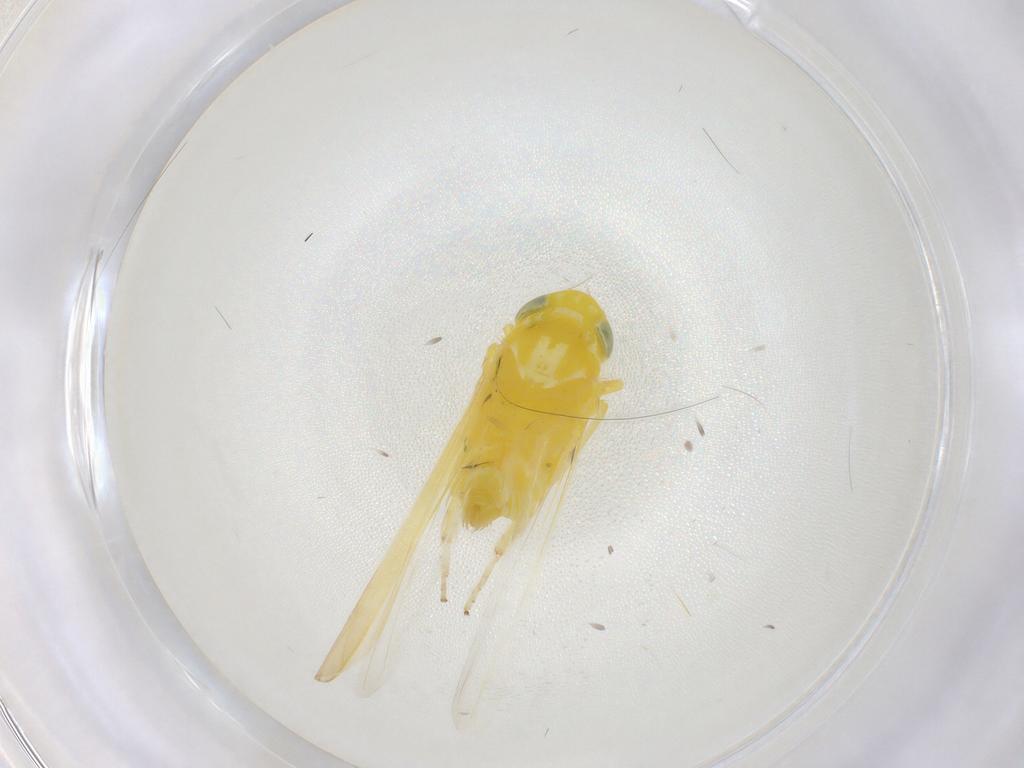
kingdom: Animalia
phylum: Arthropoda
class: Insecta
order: Hemiptera
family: Cicadellidae
